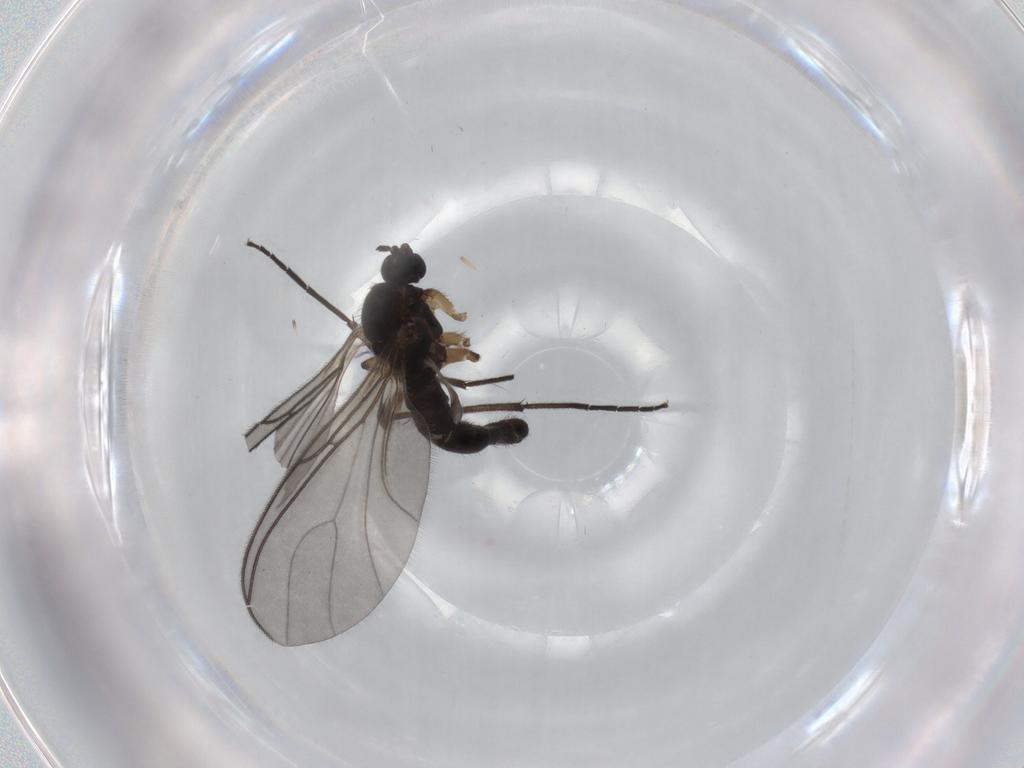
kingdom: Animalia
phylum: Arthropoda
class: Insecta
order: Diptera
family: Sciaridae
